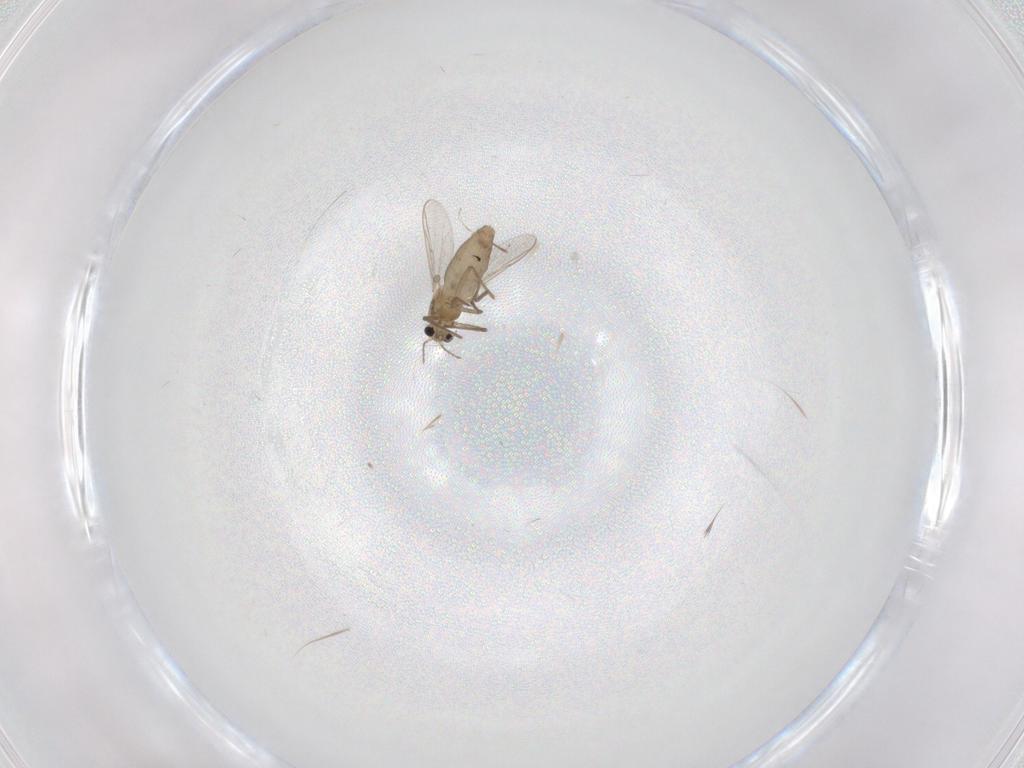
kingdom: Animalia
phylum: Arthropoda
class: Insecta
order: Diptera
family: Chironomidae
